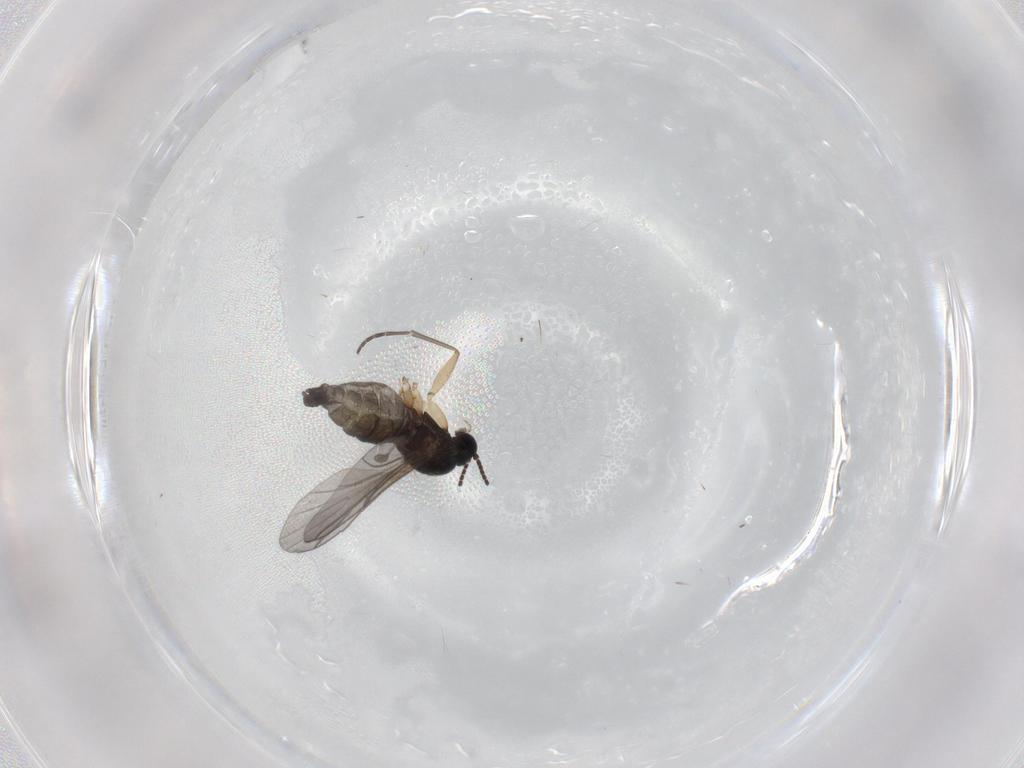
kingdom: Animalia
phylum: Arthropoda
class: Insecta
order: Diptera
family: Sciaridae
